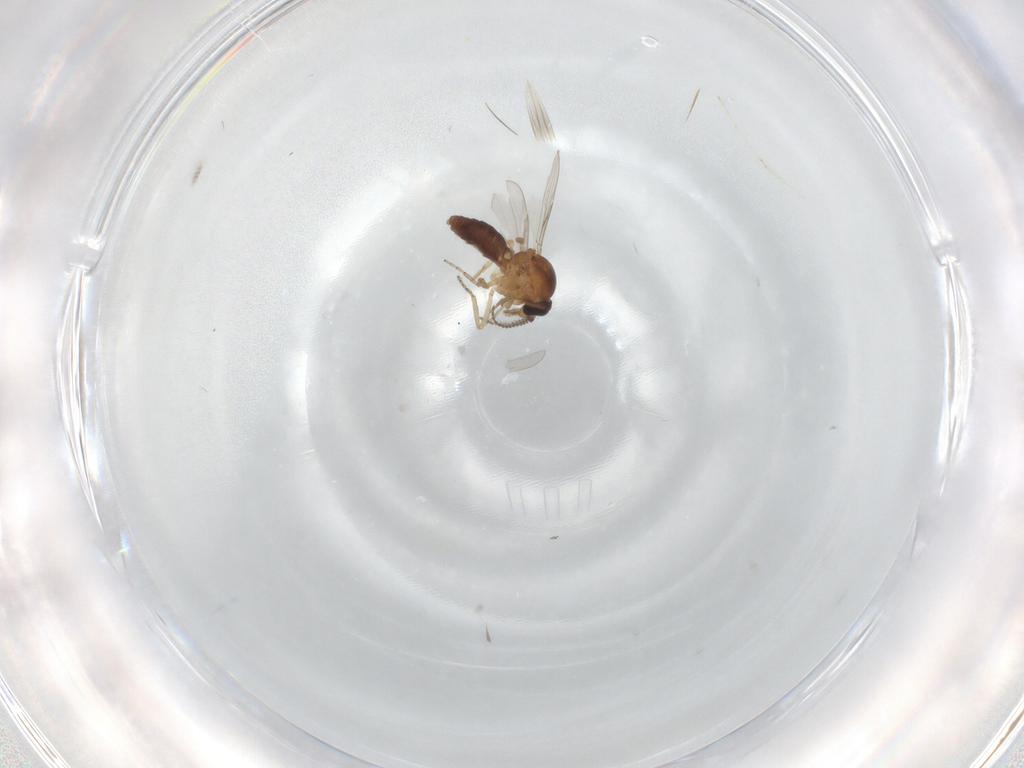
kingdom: Animalia
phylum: Arthropoda
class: Insecta
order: Diptera
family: Ceratopogonidae
